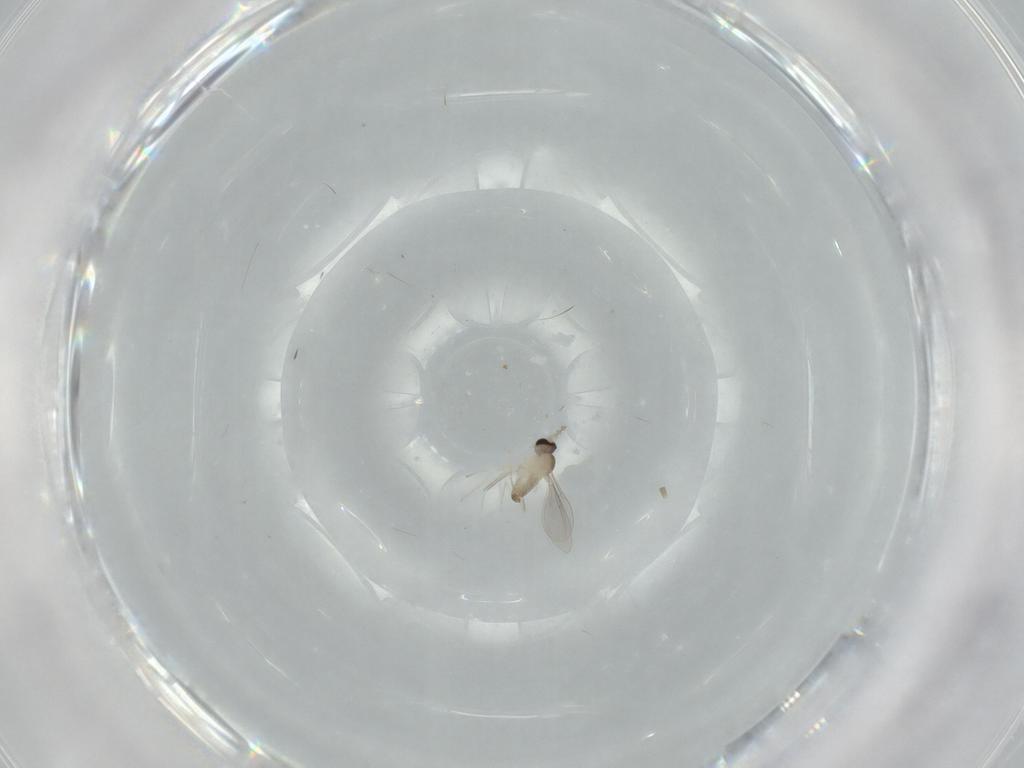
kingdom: Animalia
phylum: Arthropoda
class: Insecta
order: Diptera
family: Cecidomyiidae
